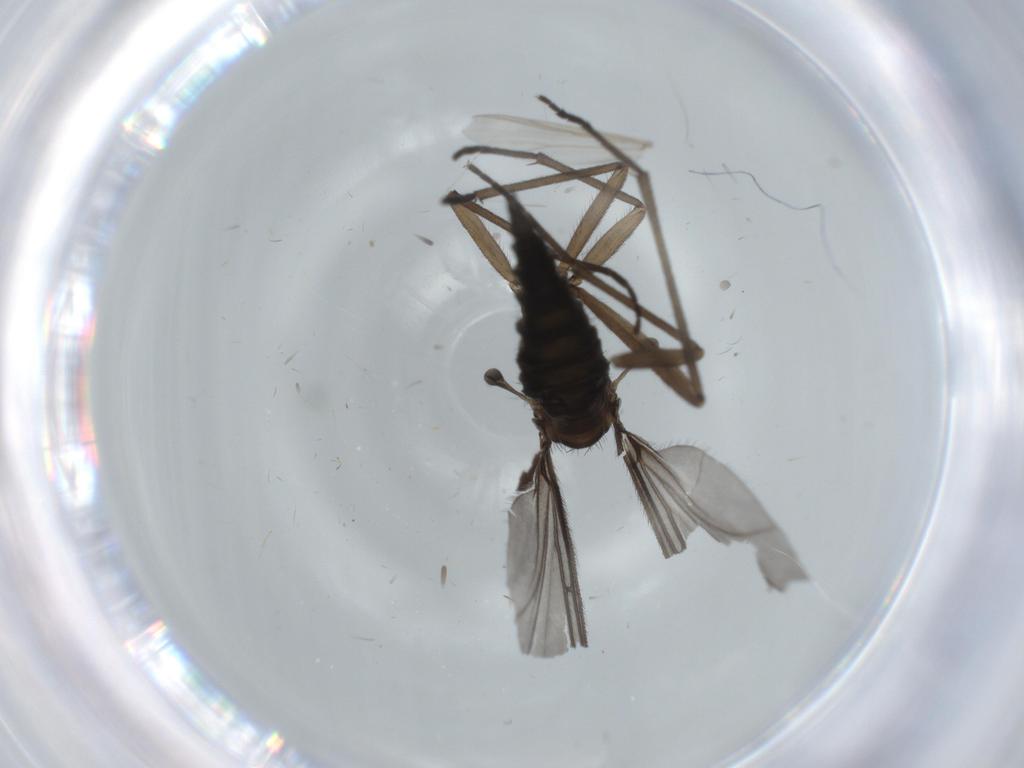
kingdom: Animalia
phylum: Arthropoda
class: Insecta
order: Diptera
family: Sciaridae
